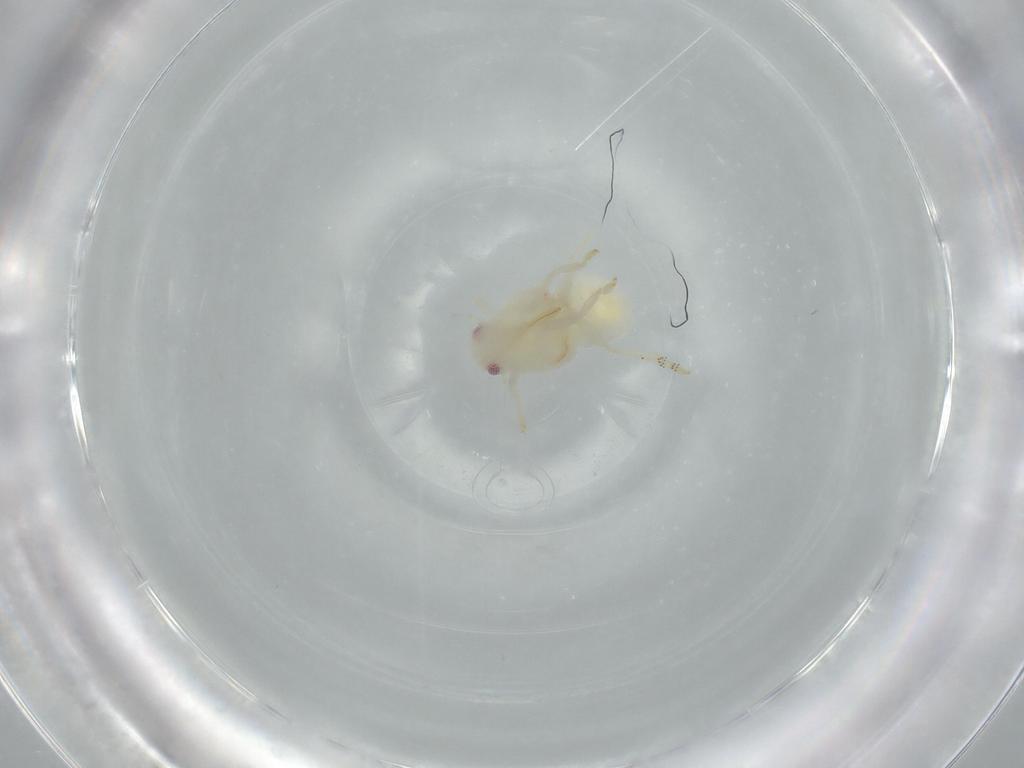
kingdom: Animalia
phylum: Arthropoda
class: Insecta
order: Hemiptera
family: Flatidae
